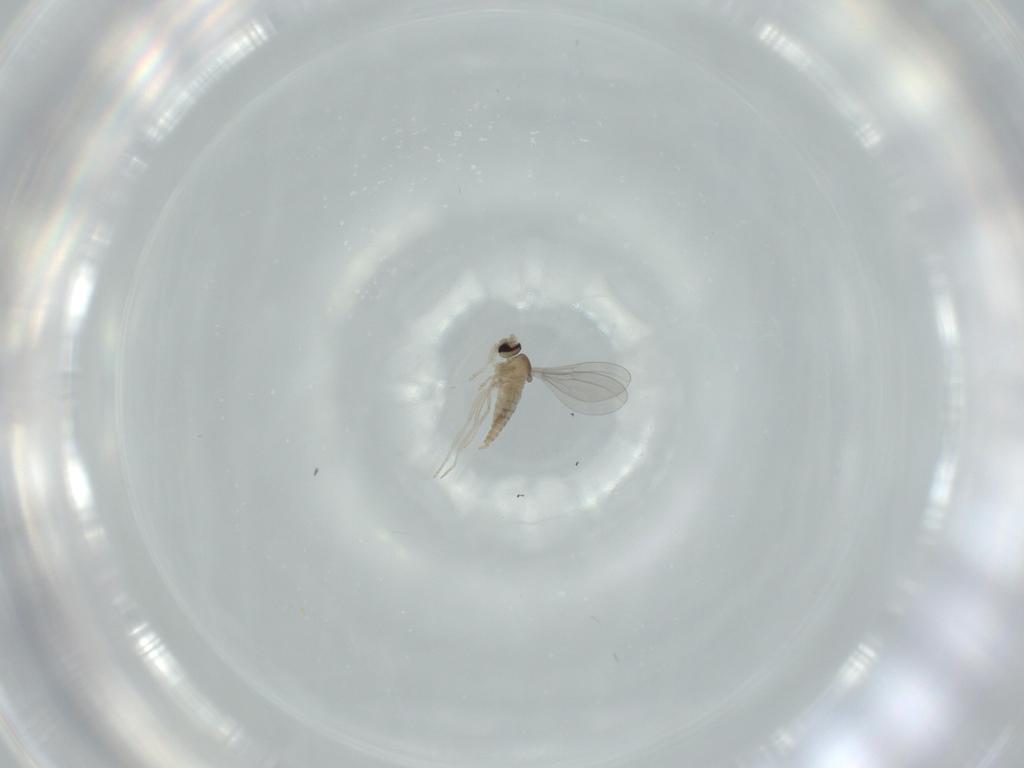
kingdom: Animalia
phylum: Arthropoda
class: Insecta
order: Diptera
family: Cecidomyiidae
